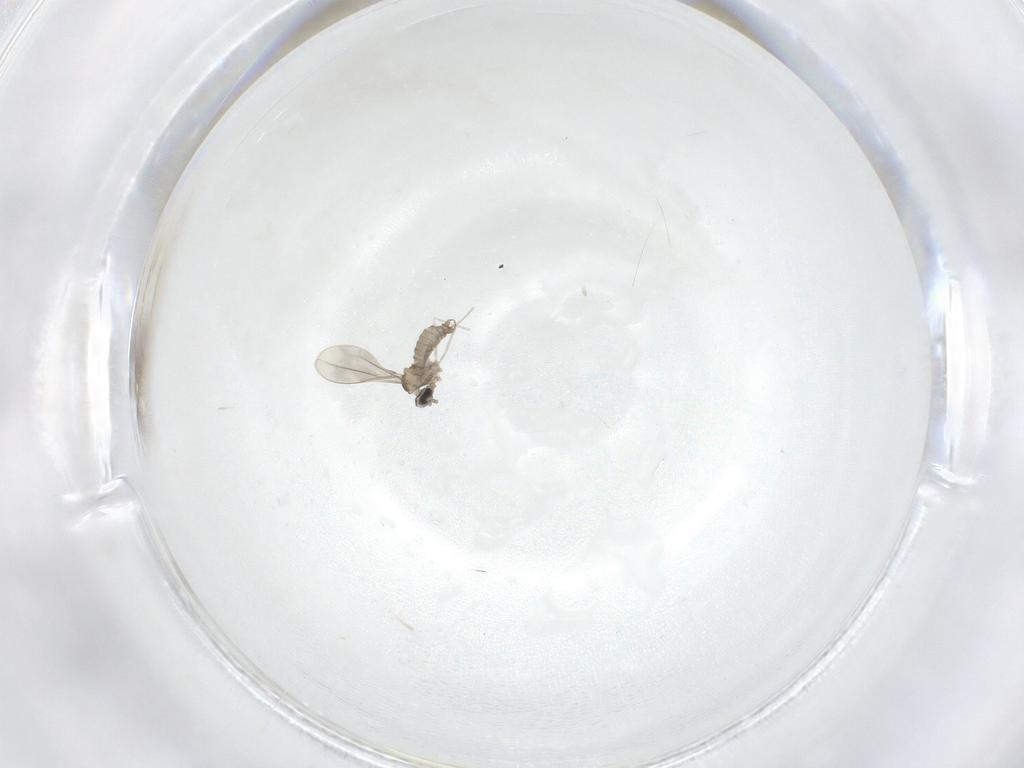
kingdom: Animalia
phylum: Arthropoda
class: Insecta
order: Diptera
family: Cecidomyiidae
